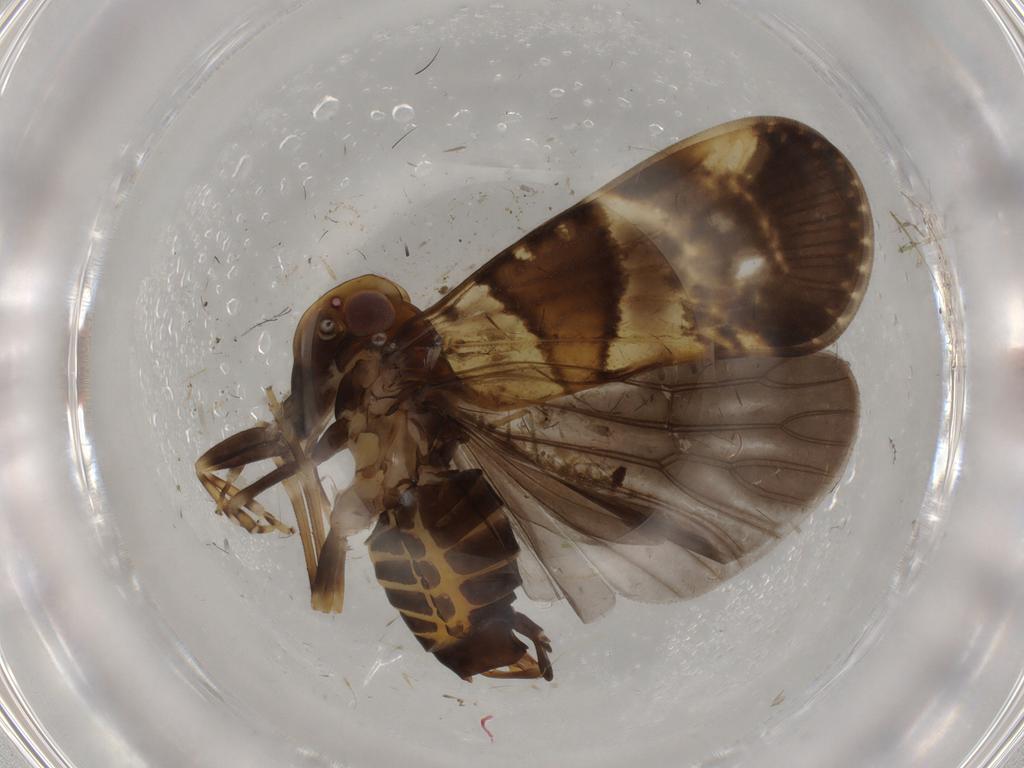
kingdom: Animalia
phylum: Arthropoda
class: Insecta
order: Hemiptera
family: Cixiidae
